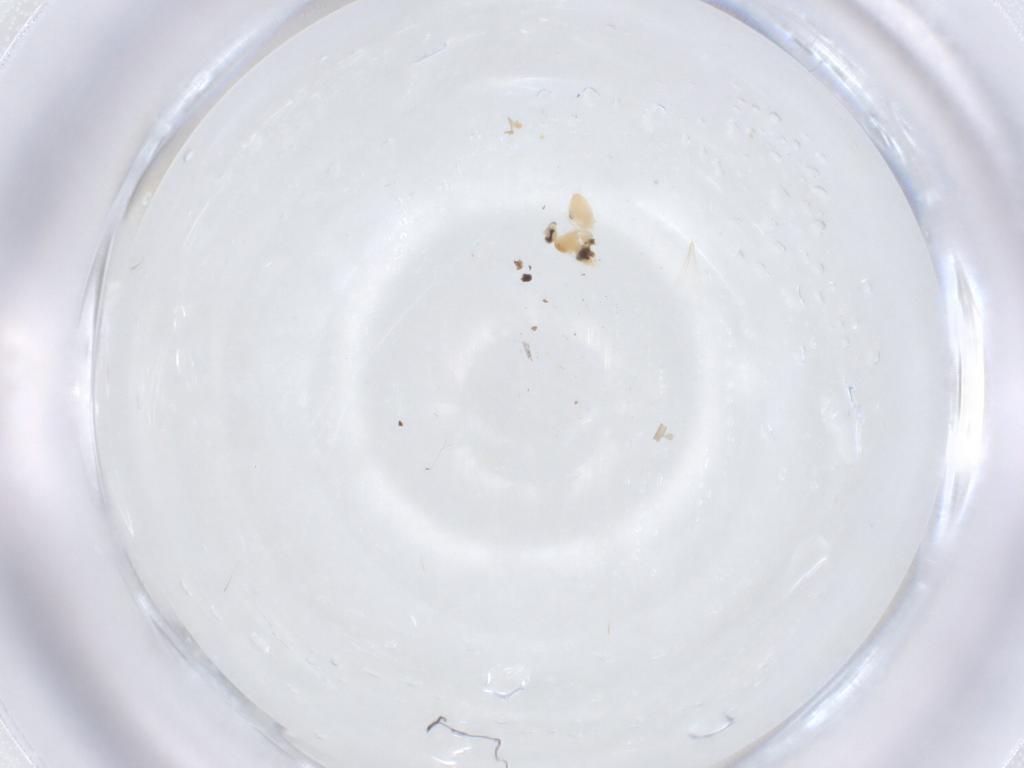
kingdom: Animalia
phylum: Arthropoda
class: Insecta
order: Diptera
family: Cecidomyiidae
